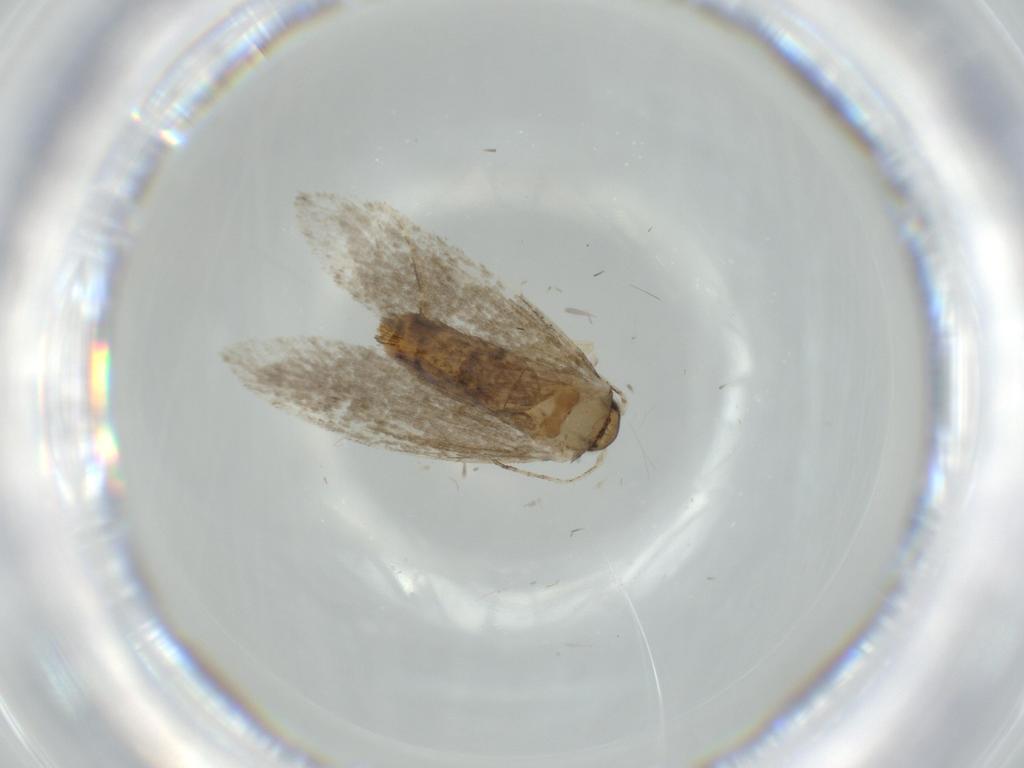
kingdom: Animalia
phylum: Arthropoda
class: Insecta
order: Lepidoptera
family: Tineidae
